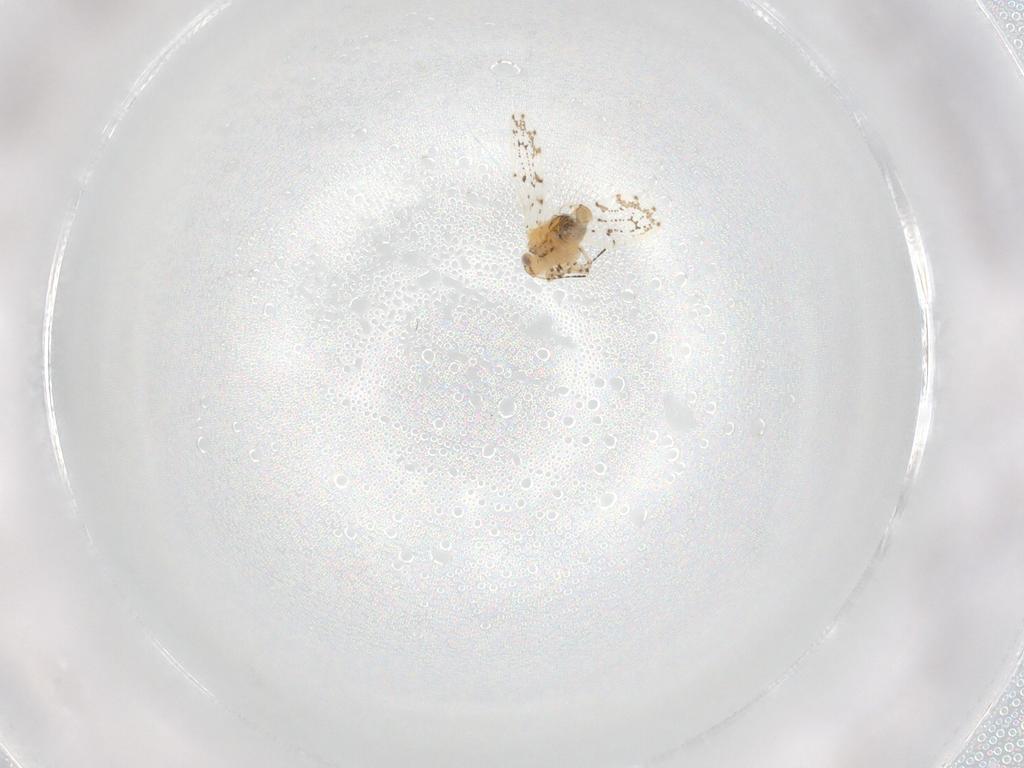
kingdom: Animalia
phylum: Arthropoda
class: Insecta
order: Hemiptera
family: Psylloidea_incertae_sedis
